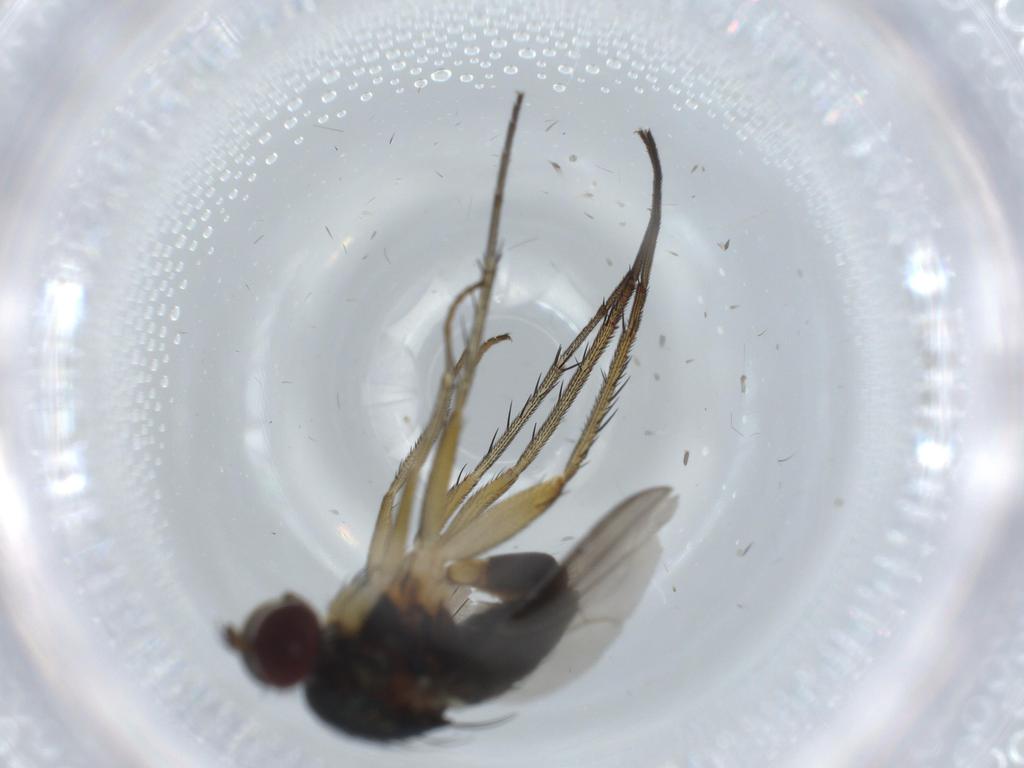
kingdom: Animalia
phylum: Arthropoda
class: Insecta
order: Diptera
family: Dolichopodidae
